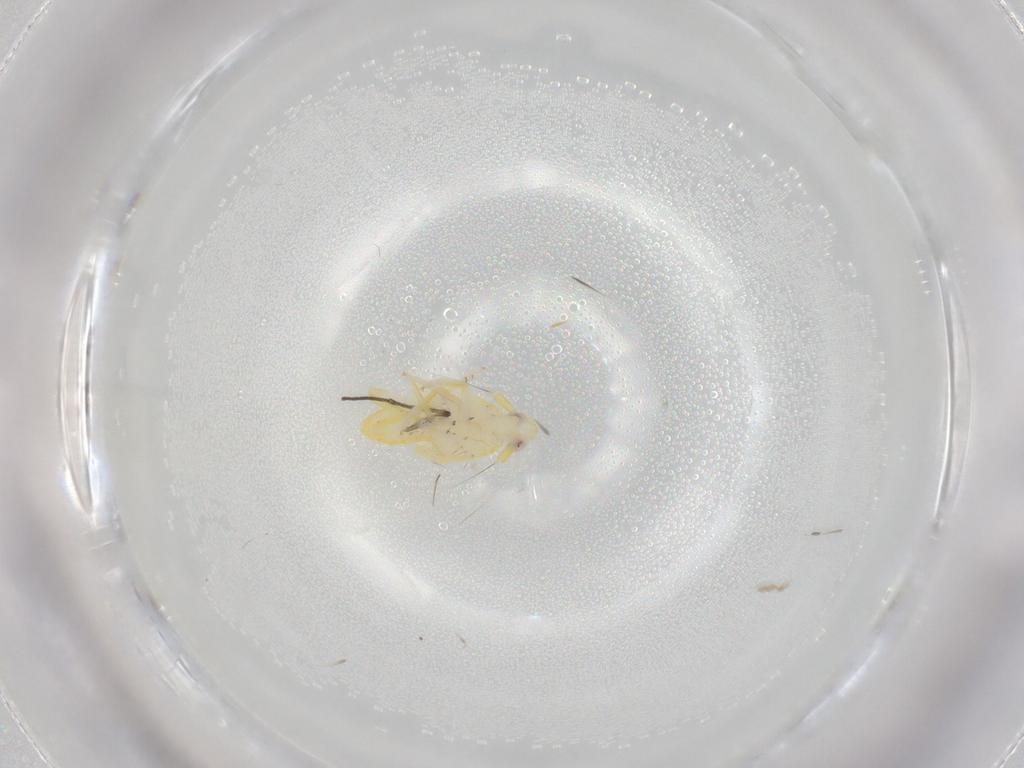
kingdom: Animalia
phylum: Arthropoda
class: Insecta
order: Hemiptera
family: Delphacidae
